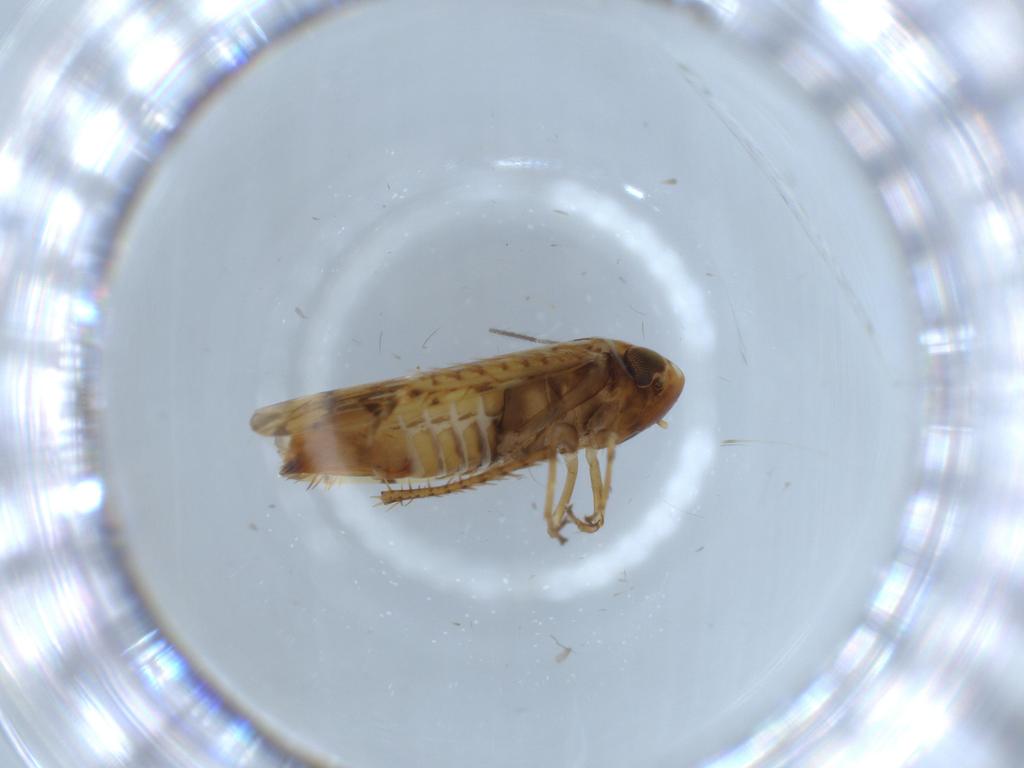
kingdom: Animalia
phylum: Arthropoda
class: Insecta
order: Hemiptera
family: Cicadellidae
